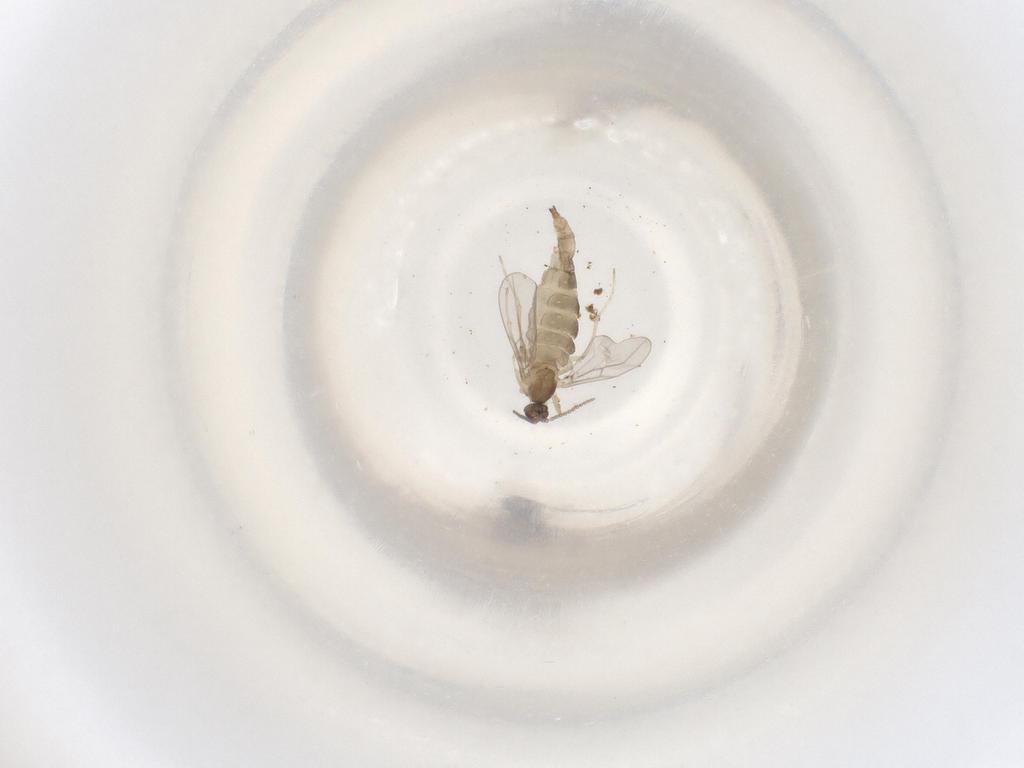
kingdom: Animalia
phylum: Arthropoda
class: Insecta
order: Diptera
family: Cecidomyiidae
